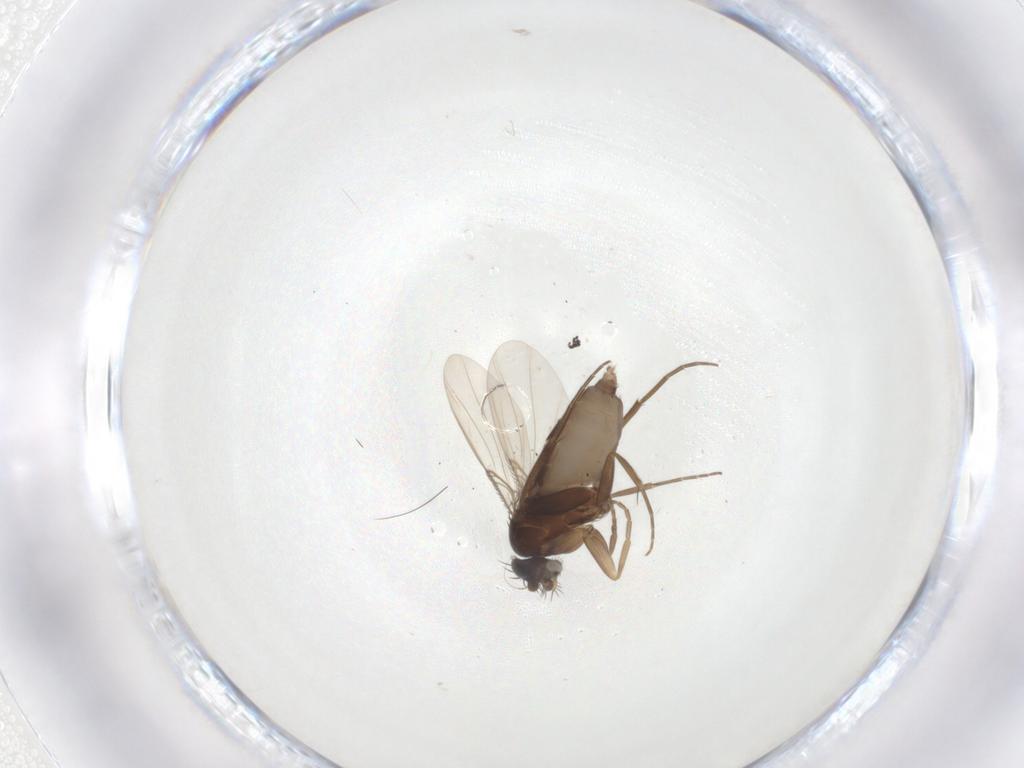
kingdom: Animalia
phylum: Arthropoda
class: Insecta
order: Diptera
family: Phoridae
